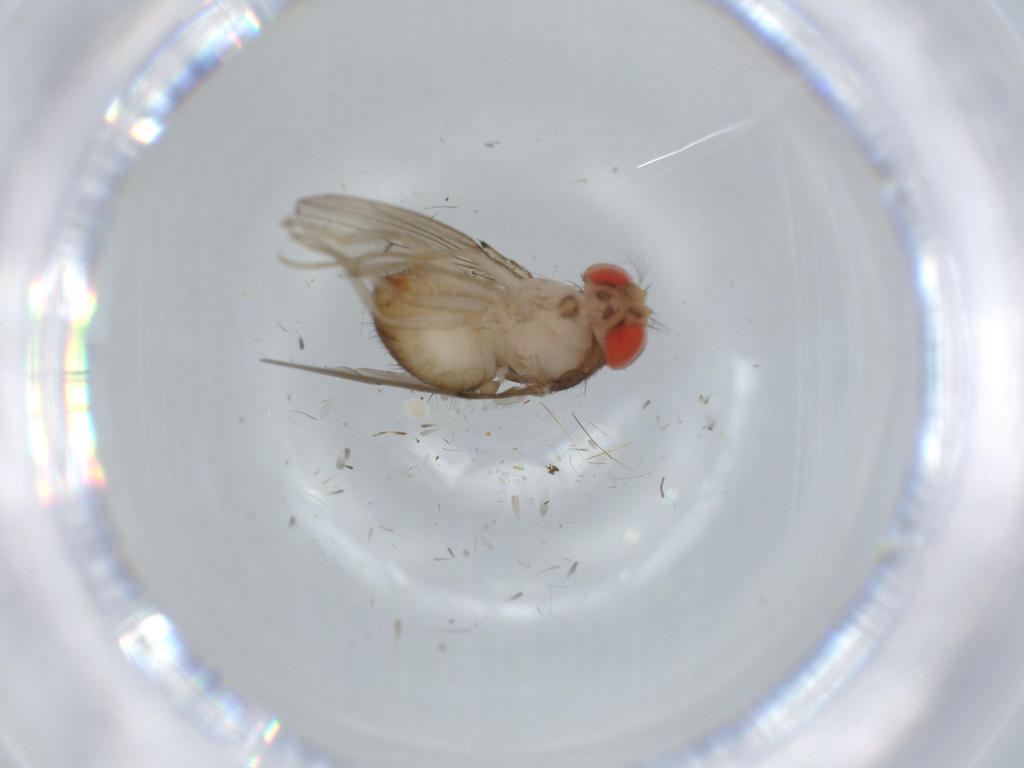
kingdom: Animalia
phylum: Arthropoda
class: Insecta
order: Diptera
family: Drosophilidae
